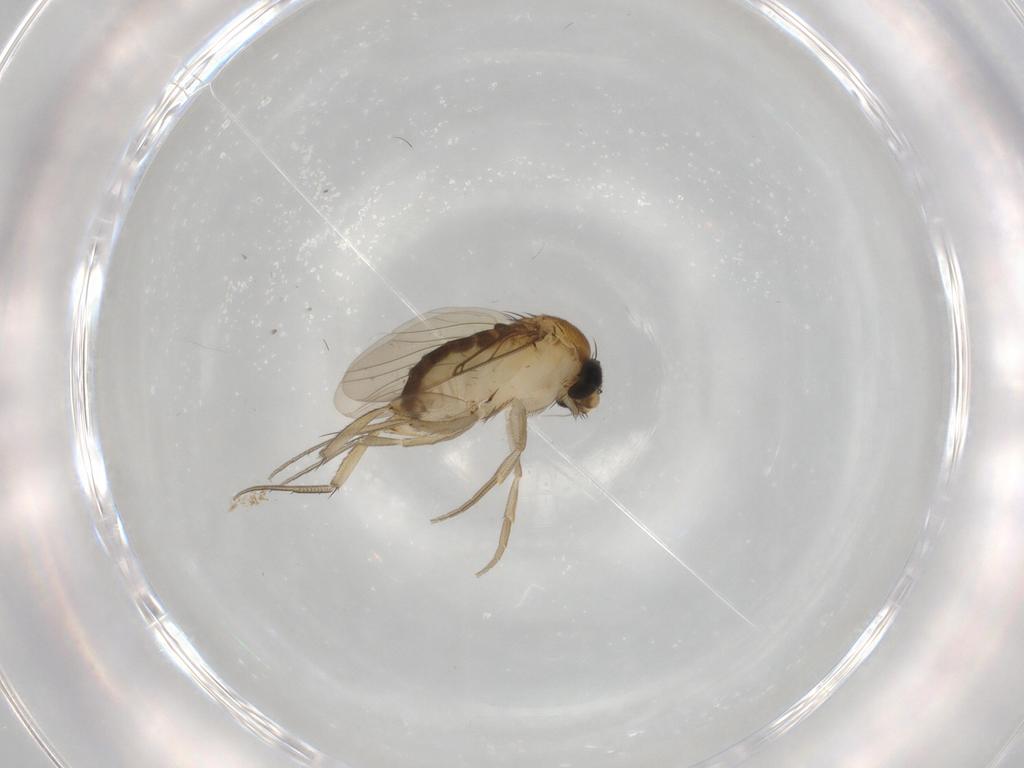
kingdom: Animalia
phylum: Arthropoda
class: Insecta
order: Diptera
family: Phoridae
